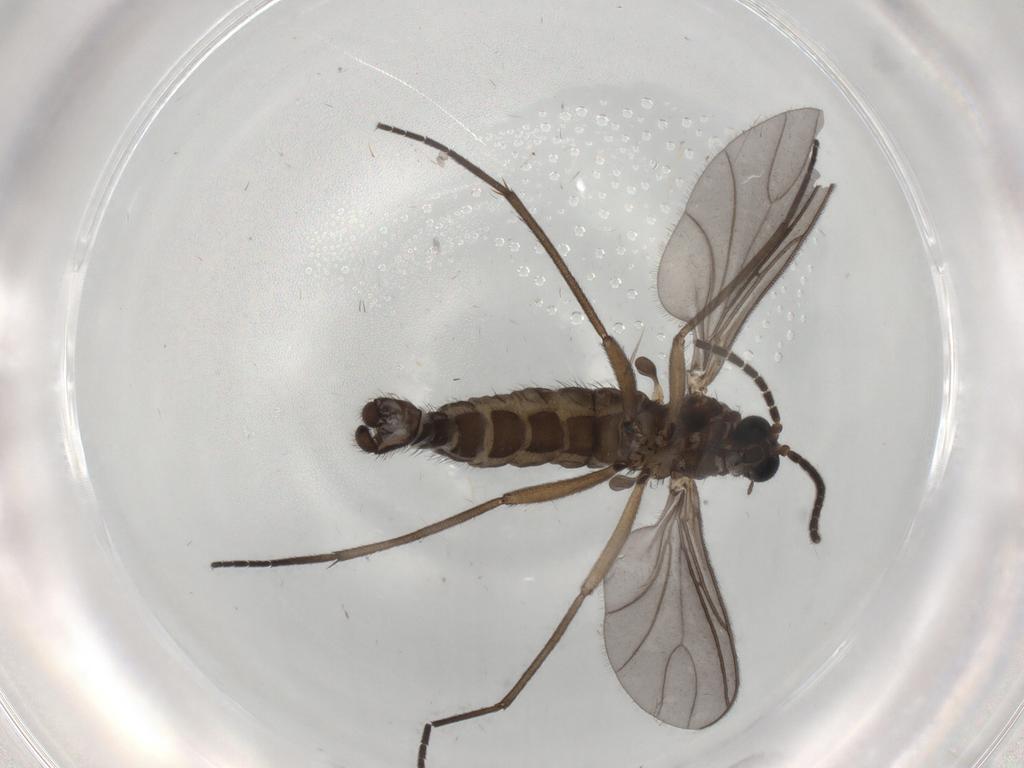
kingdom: Animalia
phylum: Arthropoda
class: Insecta
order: Diptera
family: Sciaridae
